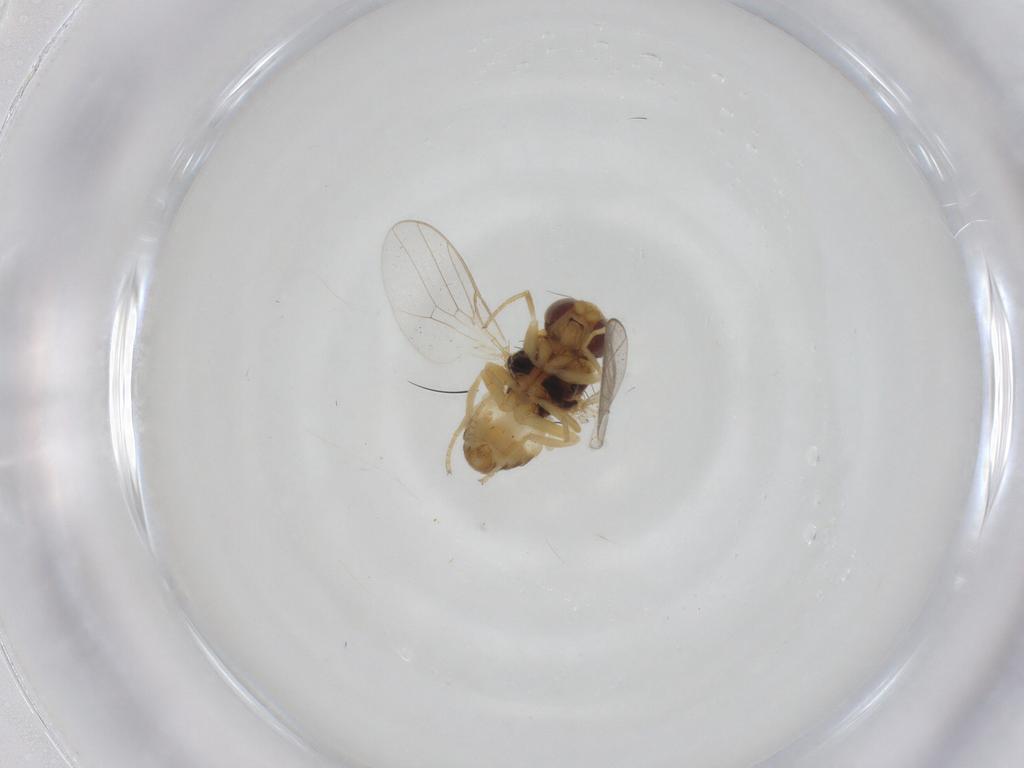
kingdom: Animalia
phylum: Arthropoda
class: Insecta
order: Diptera
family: Chloropidae
